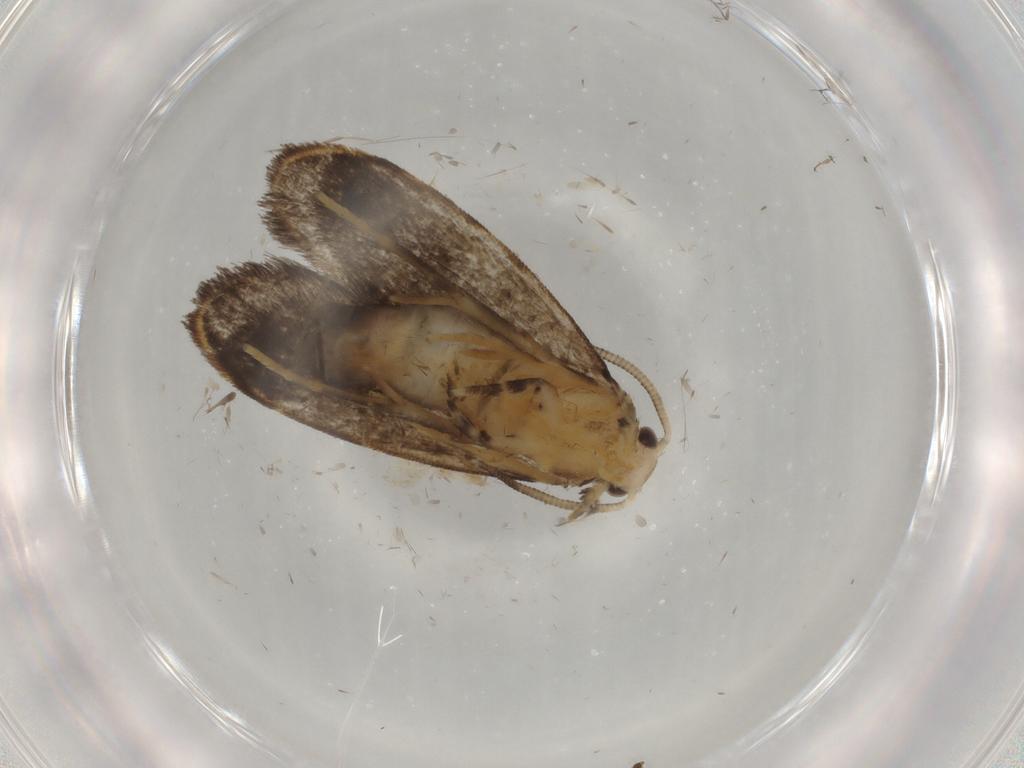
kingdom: Animalia
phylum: Arthropoda
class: Insecta
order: Lepidoptera
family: Dryadaulidae
